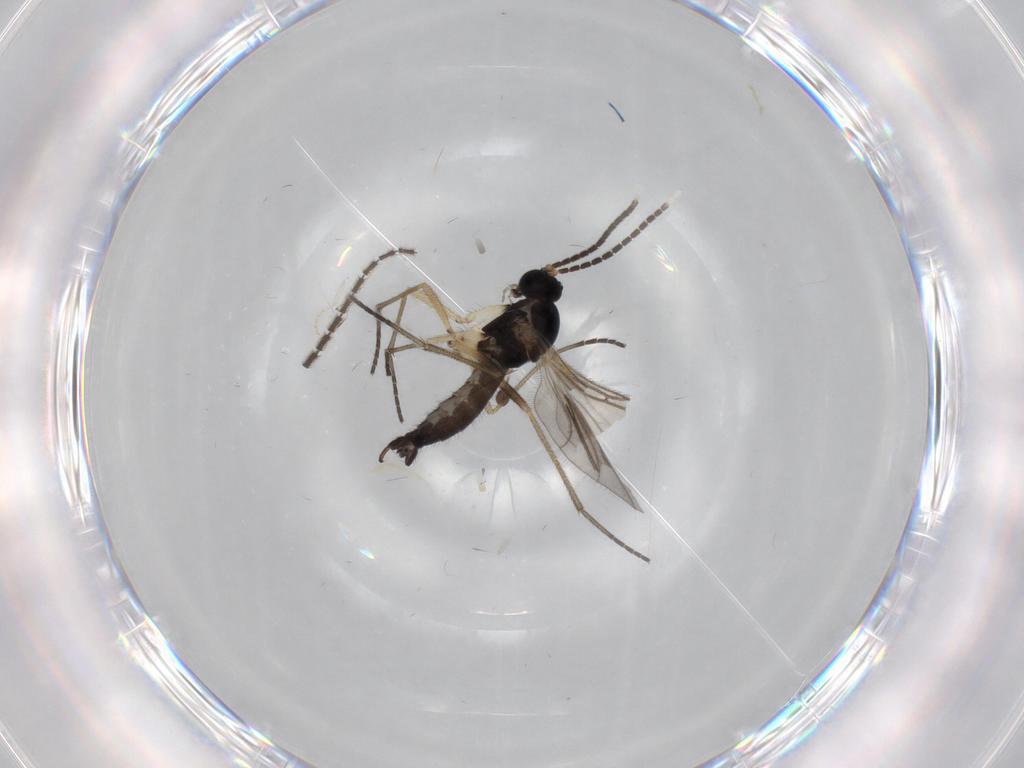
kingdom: Animalia
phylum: Arthropoda
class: Insecta
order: Diptera
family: Sciaridae
